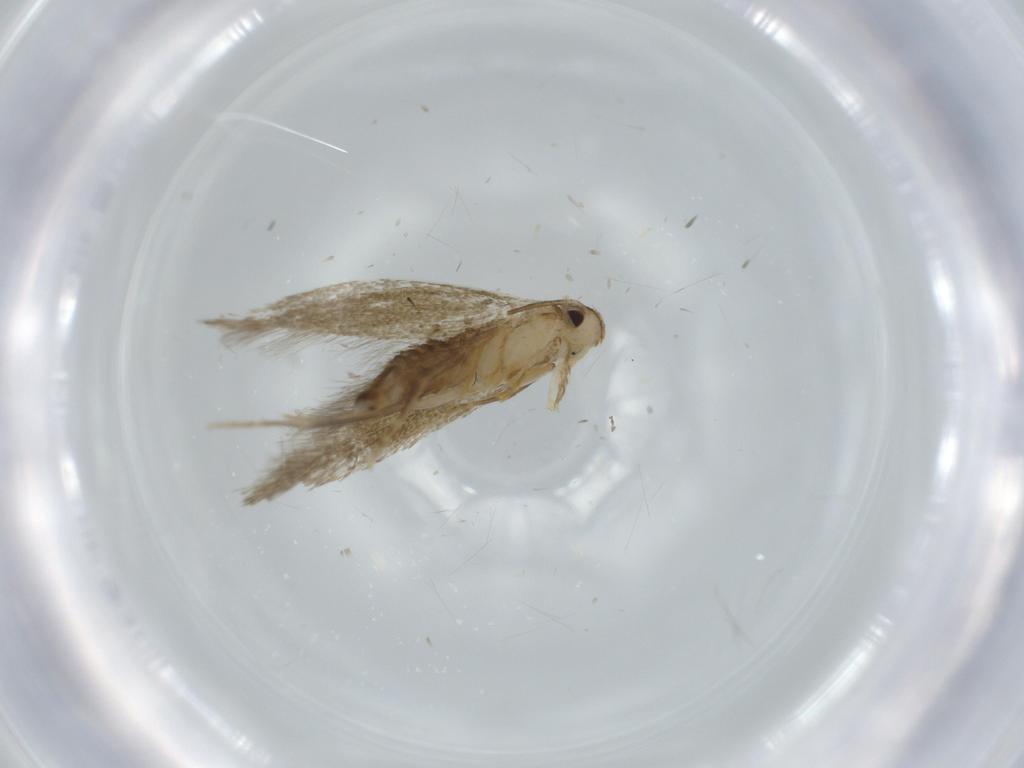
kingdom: Animalia
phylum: Arthropoda
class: Insecta
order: Lepidoptera
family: Tineidae
